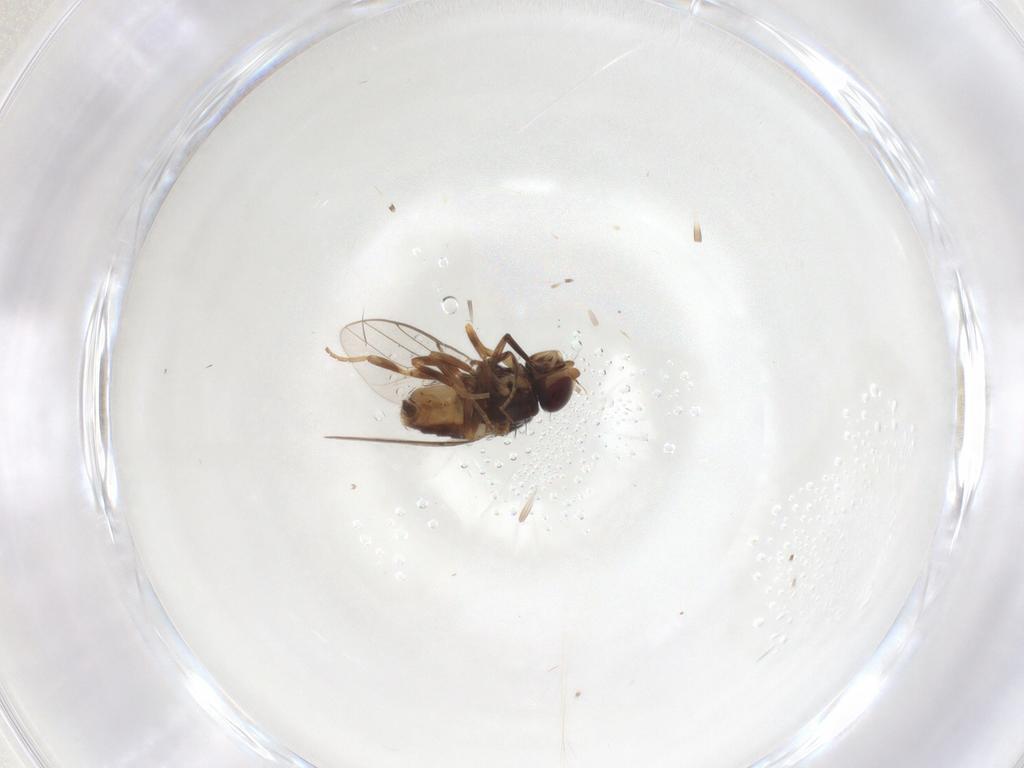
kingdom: Animalia
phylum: Arthropoda
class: Insecta
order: Diptera
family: Chloropidae
